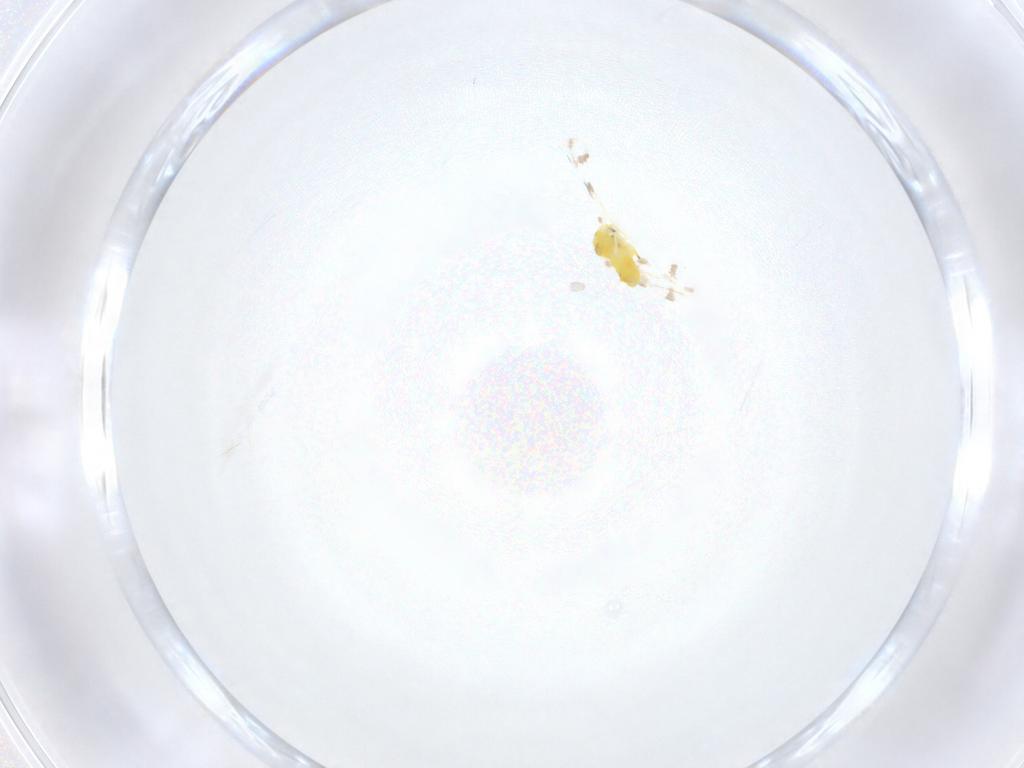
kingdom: Animalia
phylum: Arthropoda
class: Insecta
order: Hemiptera
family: Aleyrodidae
